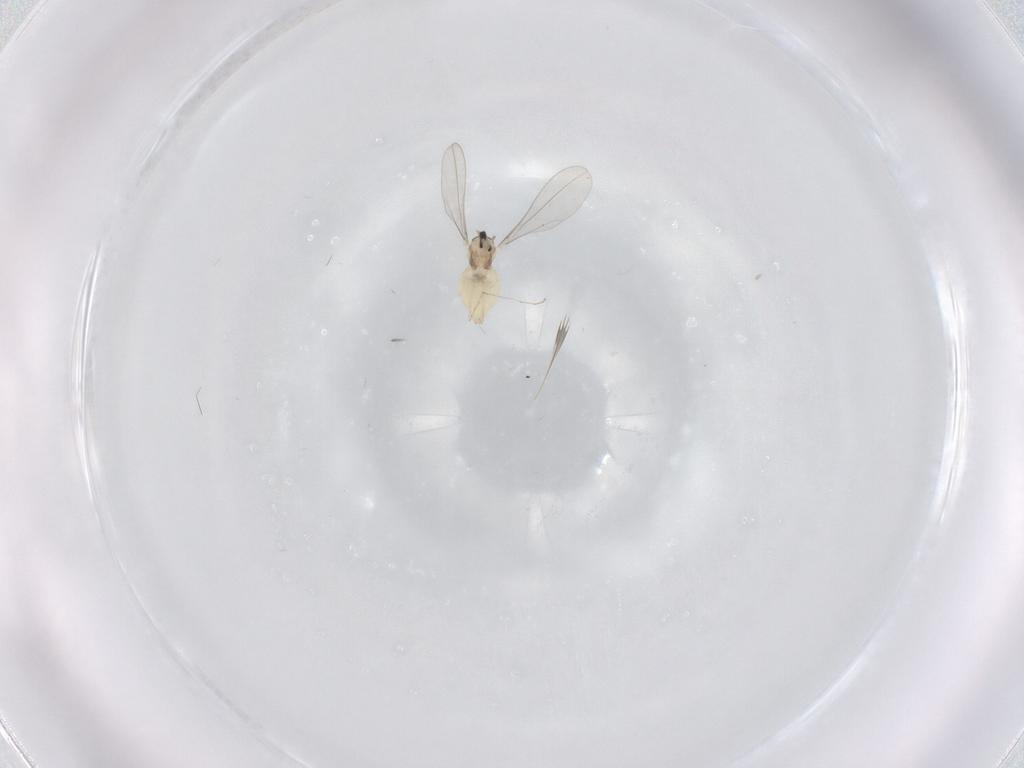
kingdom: Animalia
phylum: Arthropoda
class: Insecta
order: Diptera
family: Cecidomyiidae
